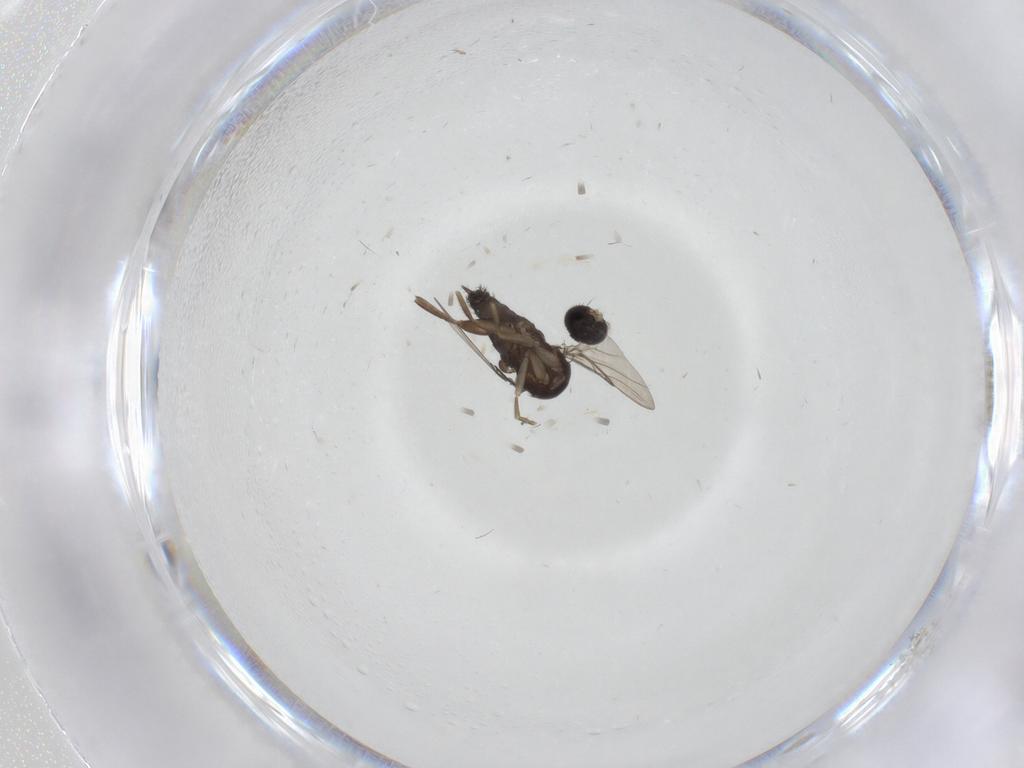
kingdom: Animalia
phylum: Arthropoda
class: Insecta
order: Diptera
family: Phoridae
